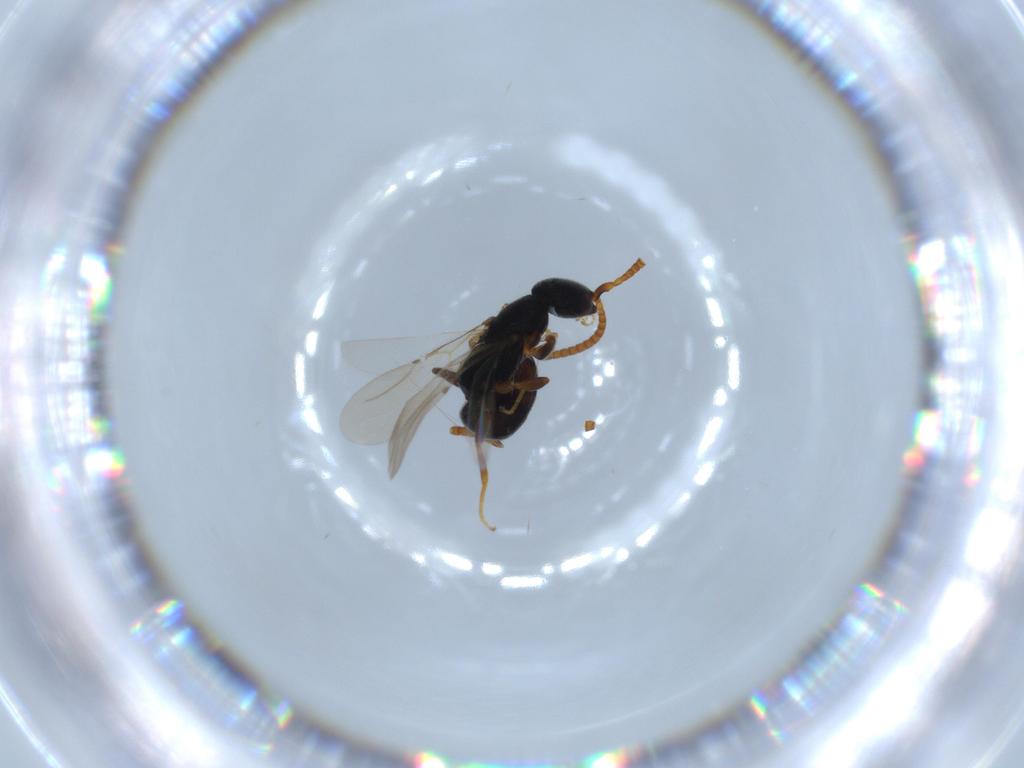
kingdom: Animalia
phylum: Arthropoda
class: Insecta
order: Hymenoptera
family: Bethylidae
